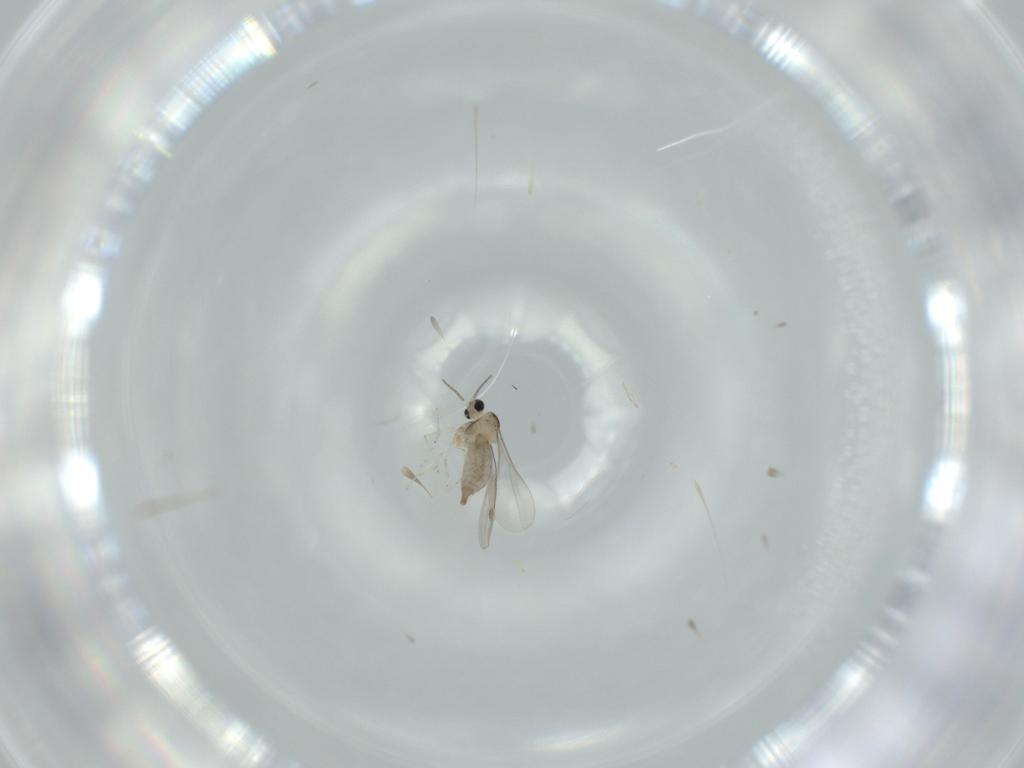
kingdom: Animalia
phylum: Arthropoda
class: Insecta
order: Diptera
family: Cecidomyiidae
